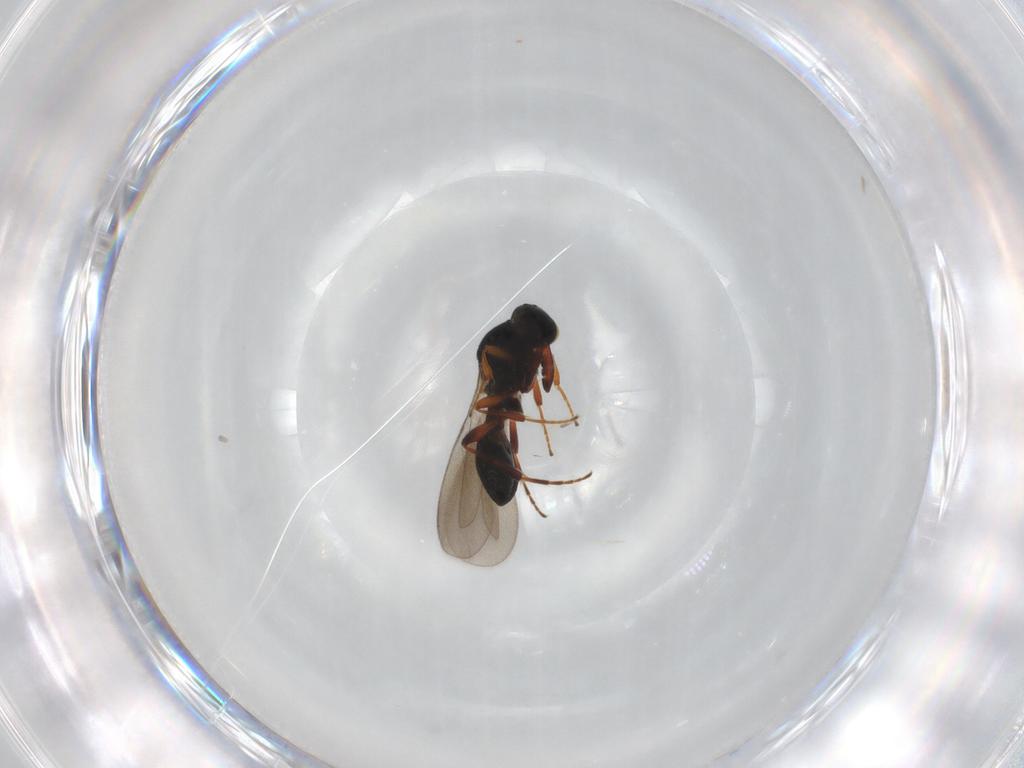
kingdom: Animalia
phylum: Arthropoda
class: Insecta
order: Hymenoptera
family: Platygastridae
